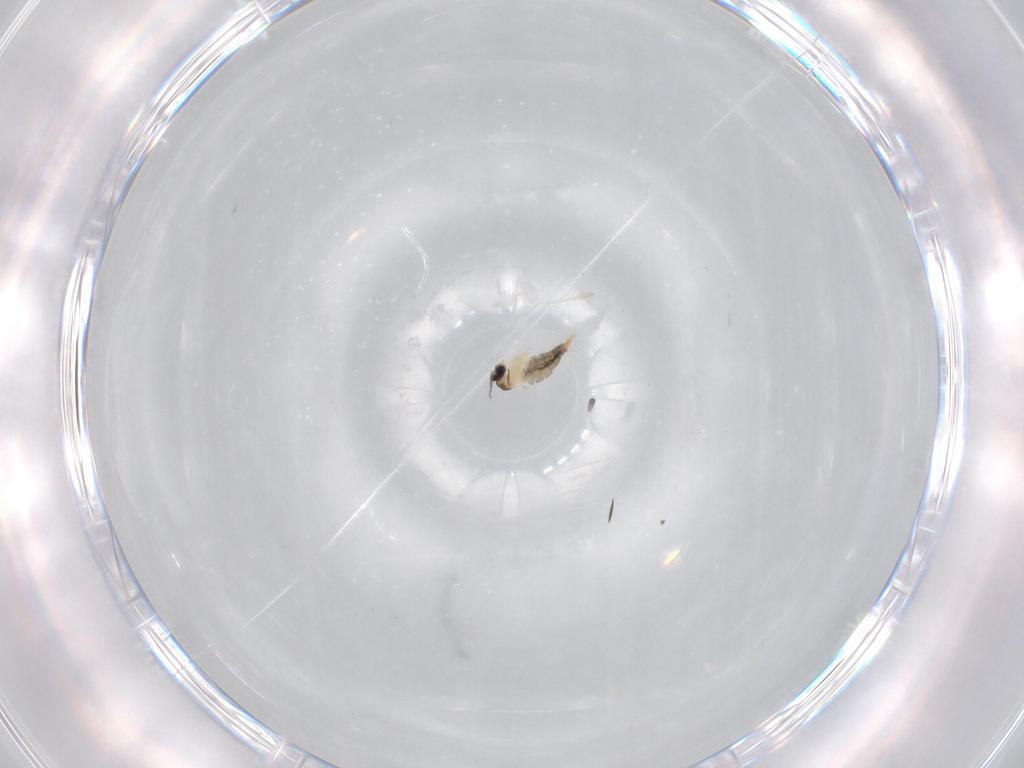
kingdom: Animalia
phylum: Arthropoda
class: Insecta
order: Diptera
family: Cecidomyiidae
